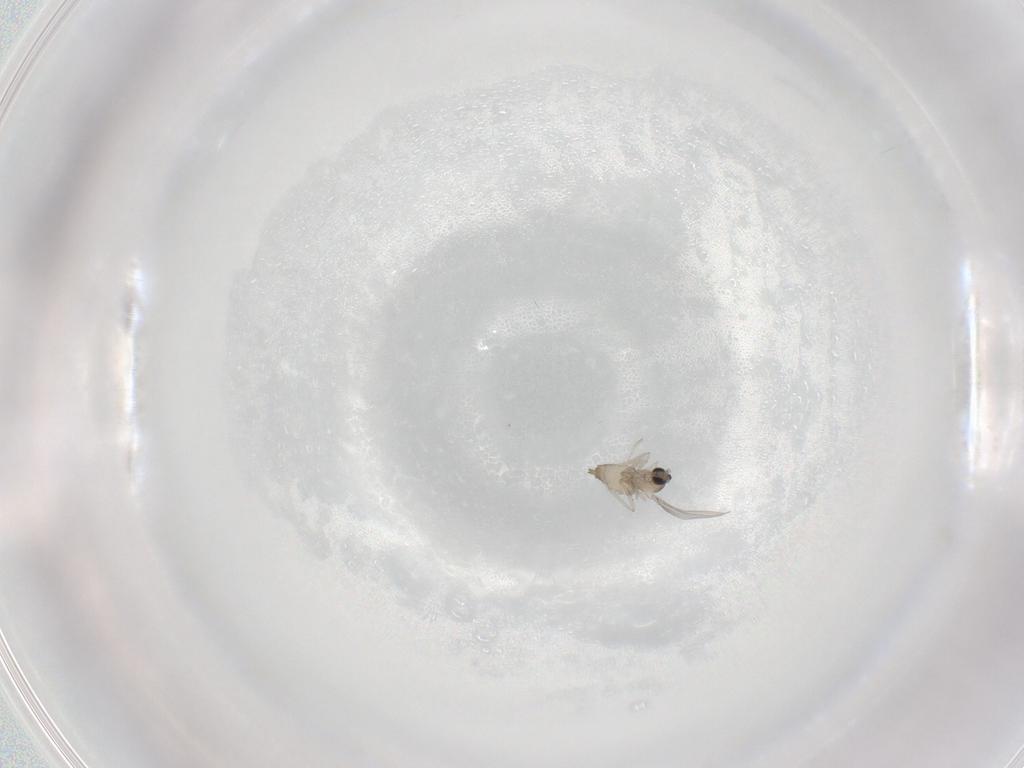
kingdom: Animalia
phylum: Arthropoda
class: Insecta
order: Diptera
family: Cecidomyiidae
